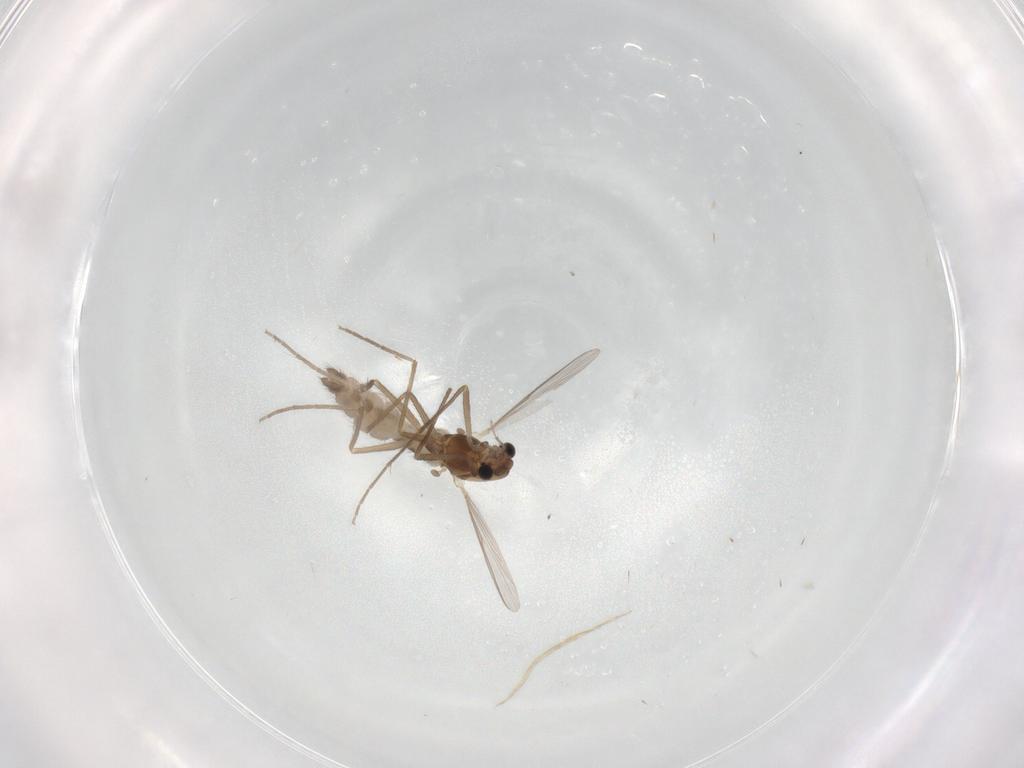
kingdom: Animalia
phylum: Arthropoda
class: Insecta
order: Diptera
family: Chironomidae
